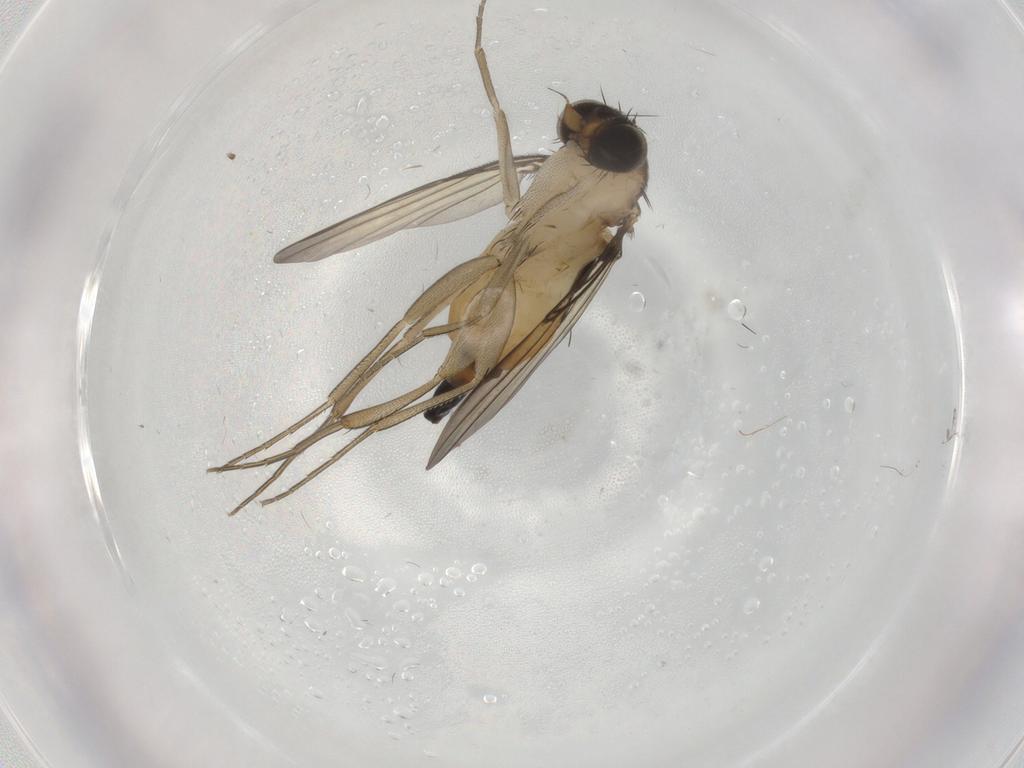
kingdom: Animalia
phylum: Arthropoda
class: Insecta
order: Diptera
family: Phoridae
